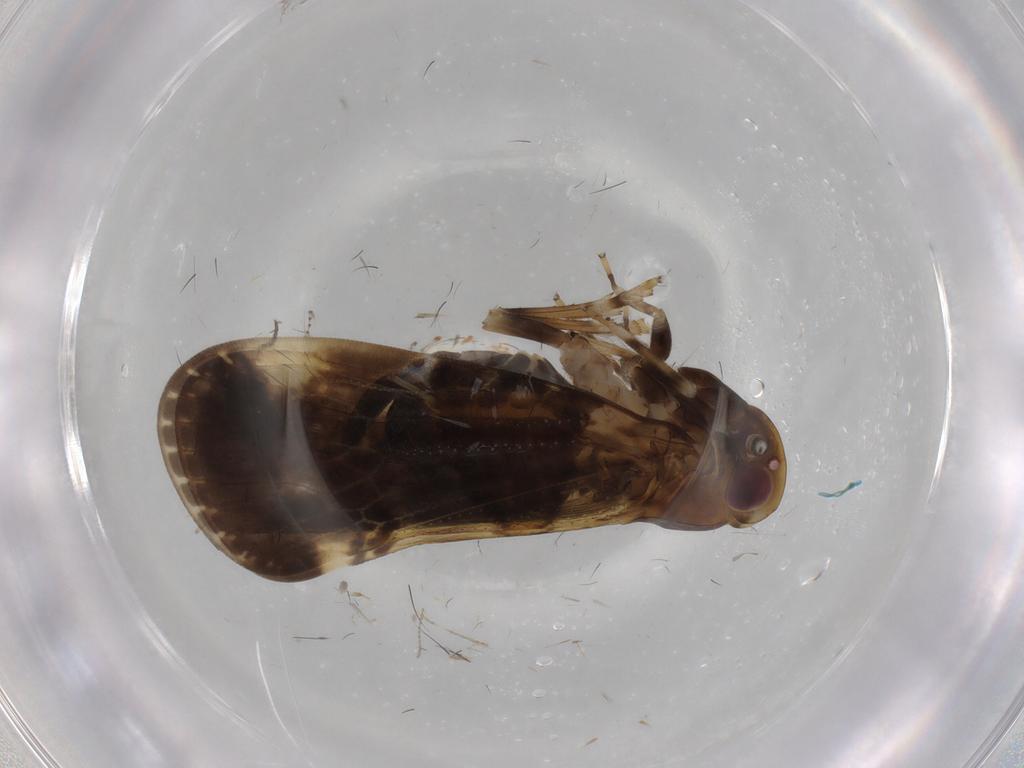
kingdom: Animalia
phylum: Arthropoda
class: Insecta
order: Hemiptera
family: Cixiidae
